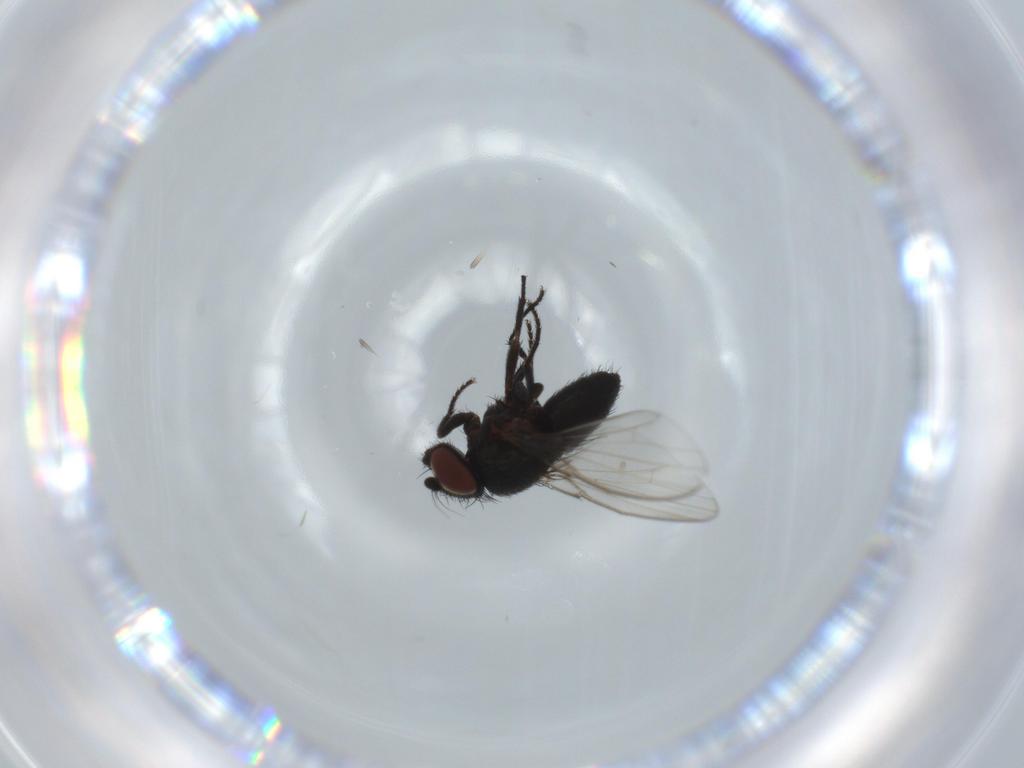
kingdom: Animalia
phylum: Arthropoda
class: Insecta
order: Diptera
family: Milichiidae
